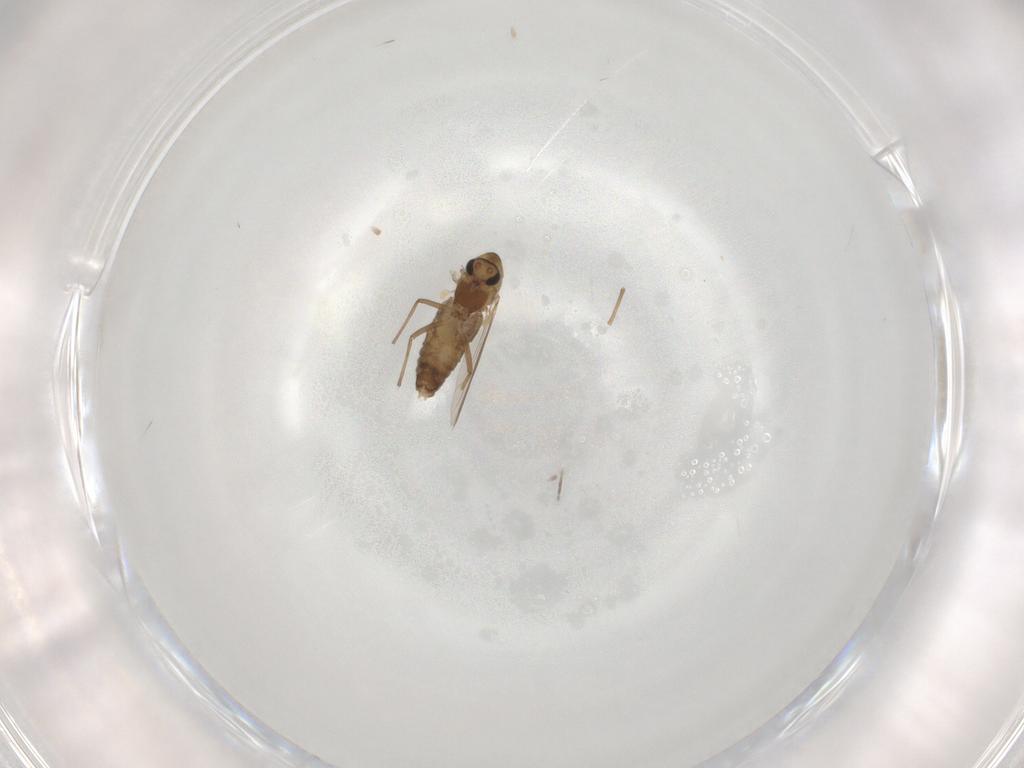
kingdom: Animalia
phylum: Arthropoda
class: Insecta
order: Diptera
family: Chironomidae
